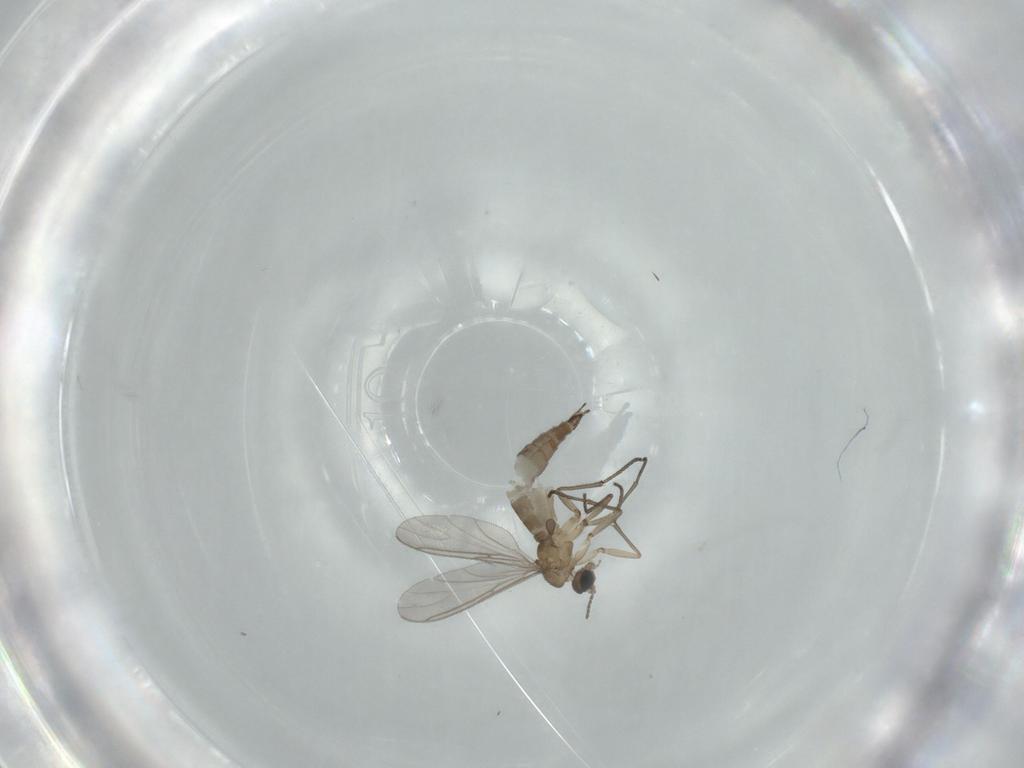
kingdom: Animalia
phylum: Arthropoda
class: Insecta
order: Diptera
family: Sciaridae
